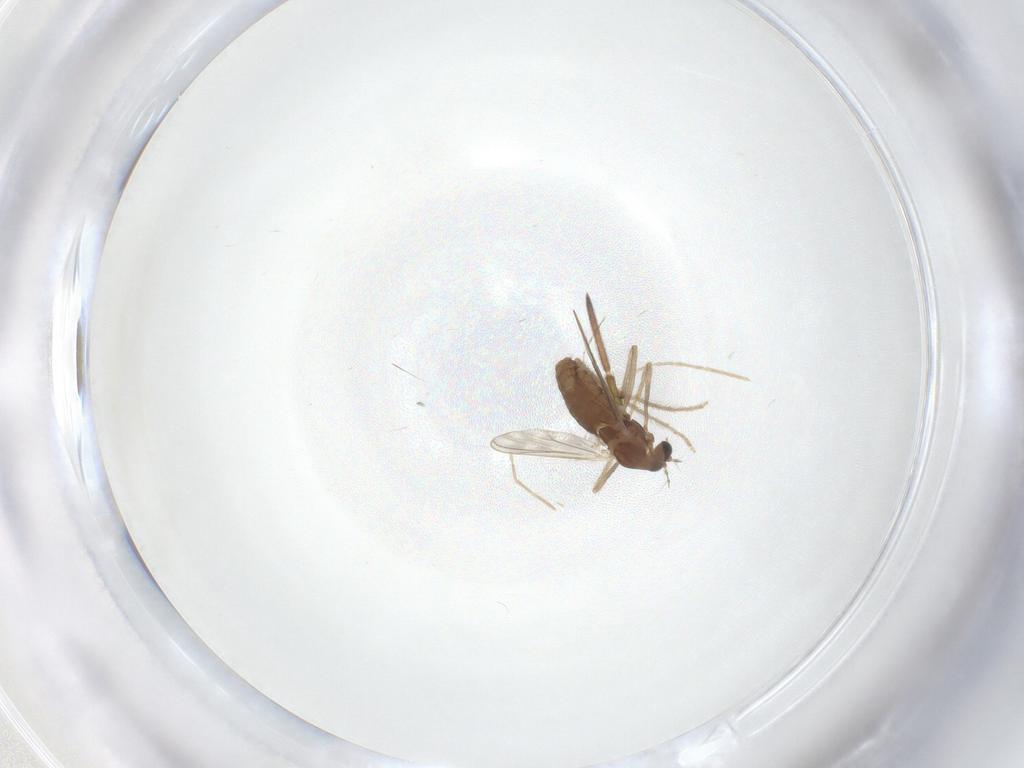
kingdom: Animalia
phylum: Arthropoda
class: Insecta
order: Diptera
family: Chironomidae
